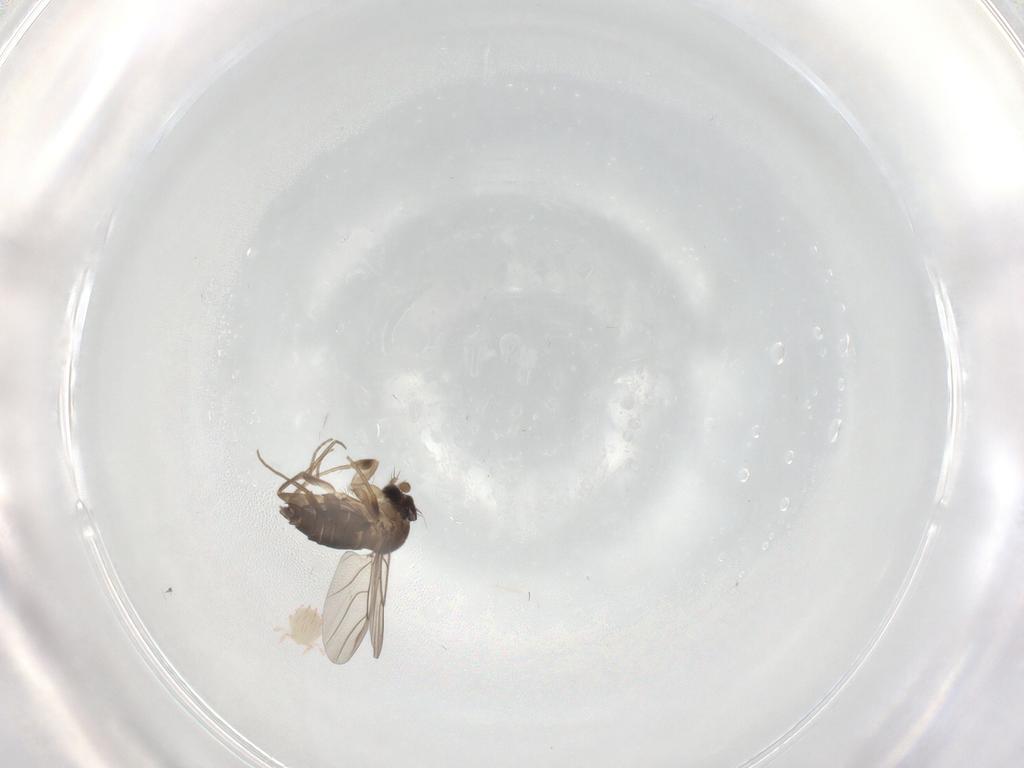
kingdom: Animalia
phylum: Arthropoda
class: Insecta
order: Diptera
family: Phoridae
